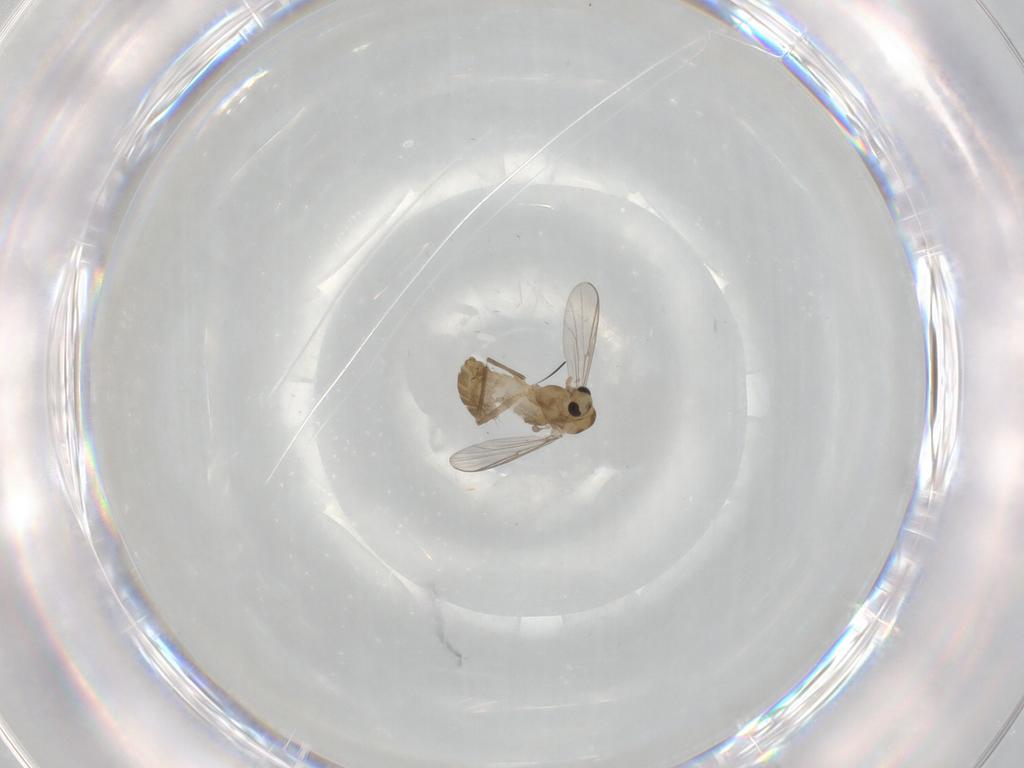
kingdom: Animalia
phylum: Arthropoda
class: Insecta
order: Diptera
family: Chironomidae
